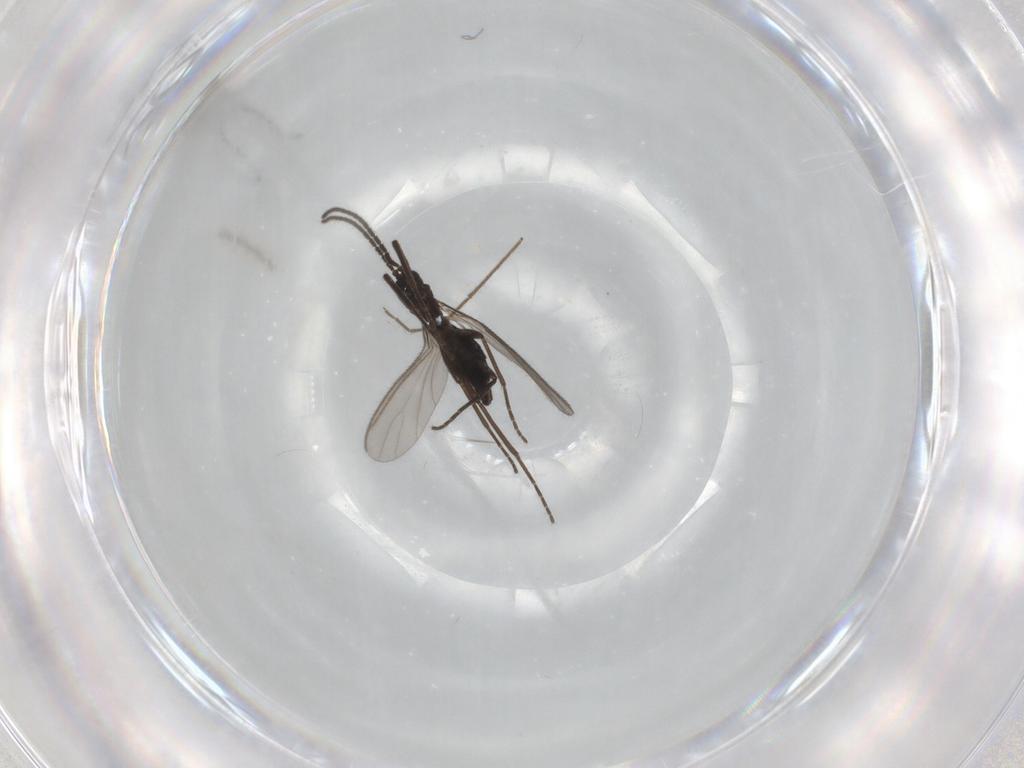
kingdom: Animalia
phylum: Arthropoda
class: Insecta
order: Diptera
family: Sciaridae
